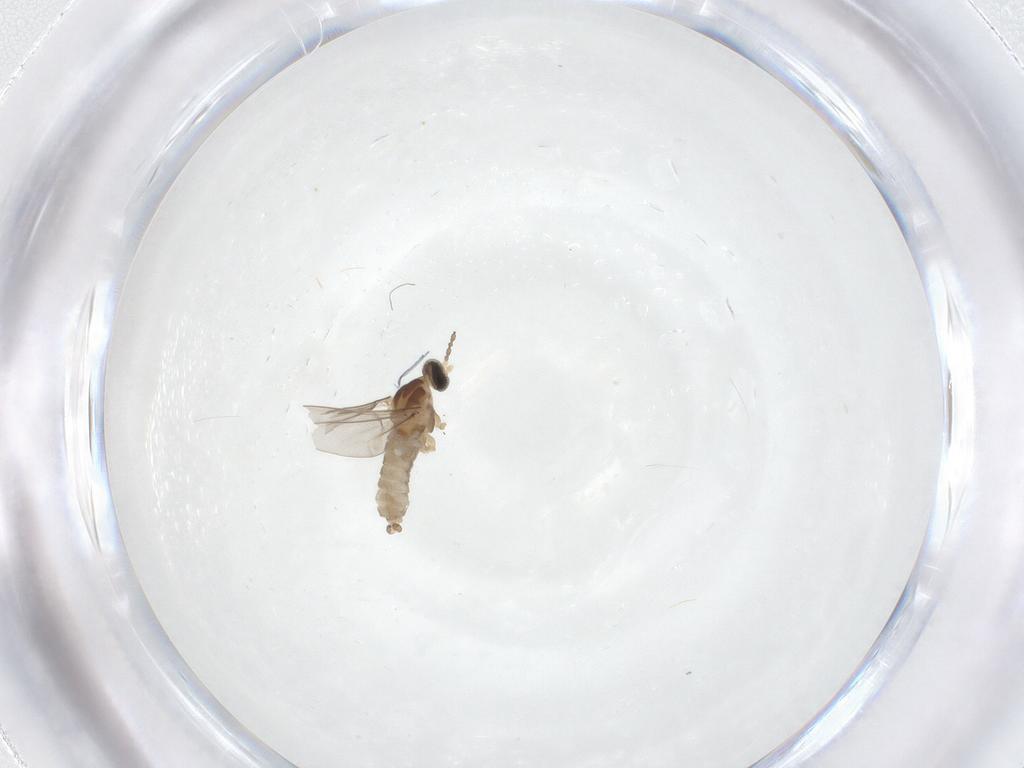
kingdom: Animalia
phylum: Arthropoda
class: Insecta
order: Diptera
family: Cecidomyiidae
